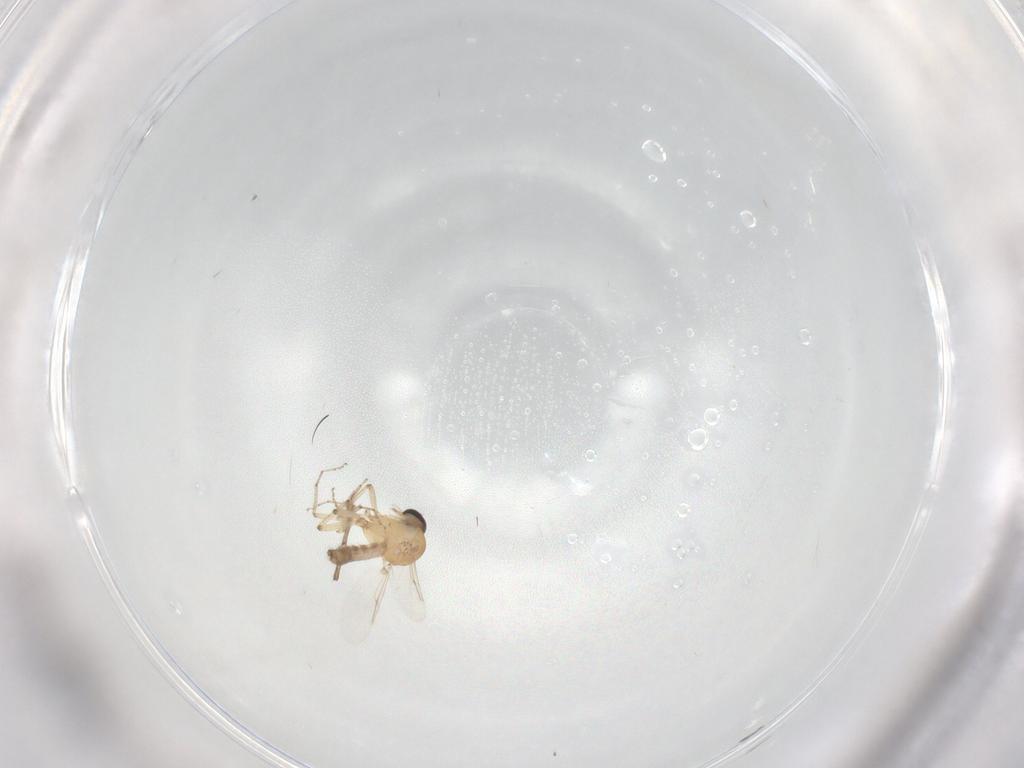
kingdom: Animalia
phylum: Arthropoda
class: Insecta
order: Diptera
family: Ceratopogonidae
